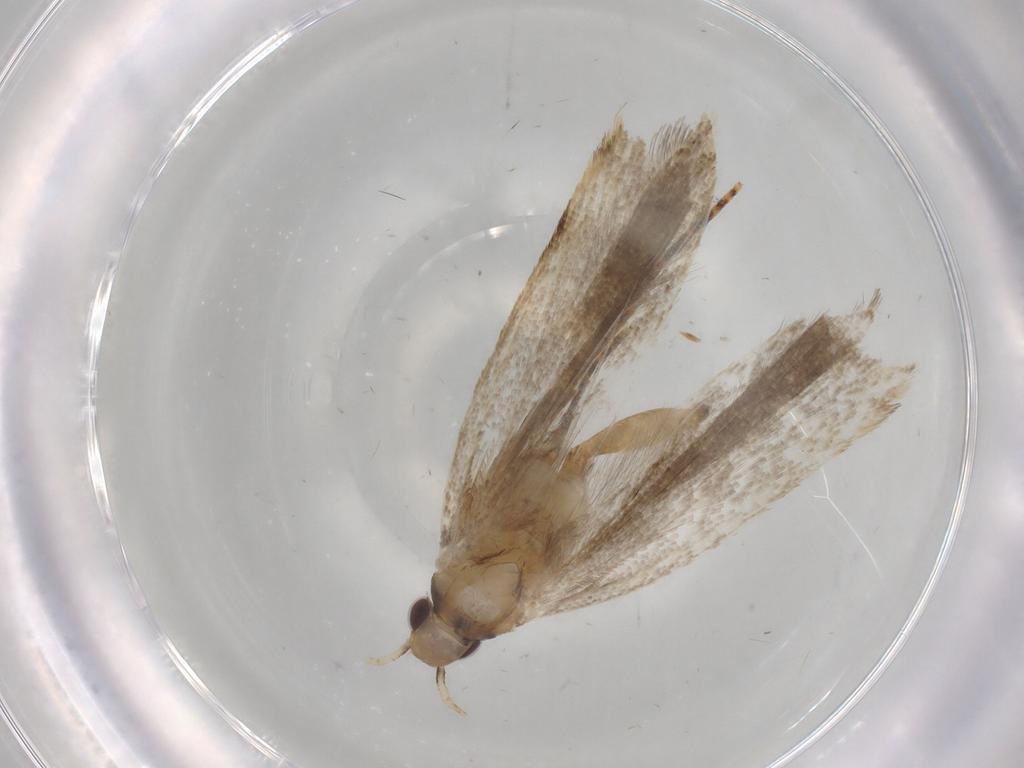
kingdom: Animalia
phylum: Arthropoda
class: Insecta
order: Lepidoptera
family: Gelechiidae
